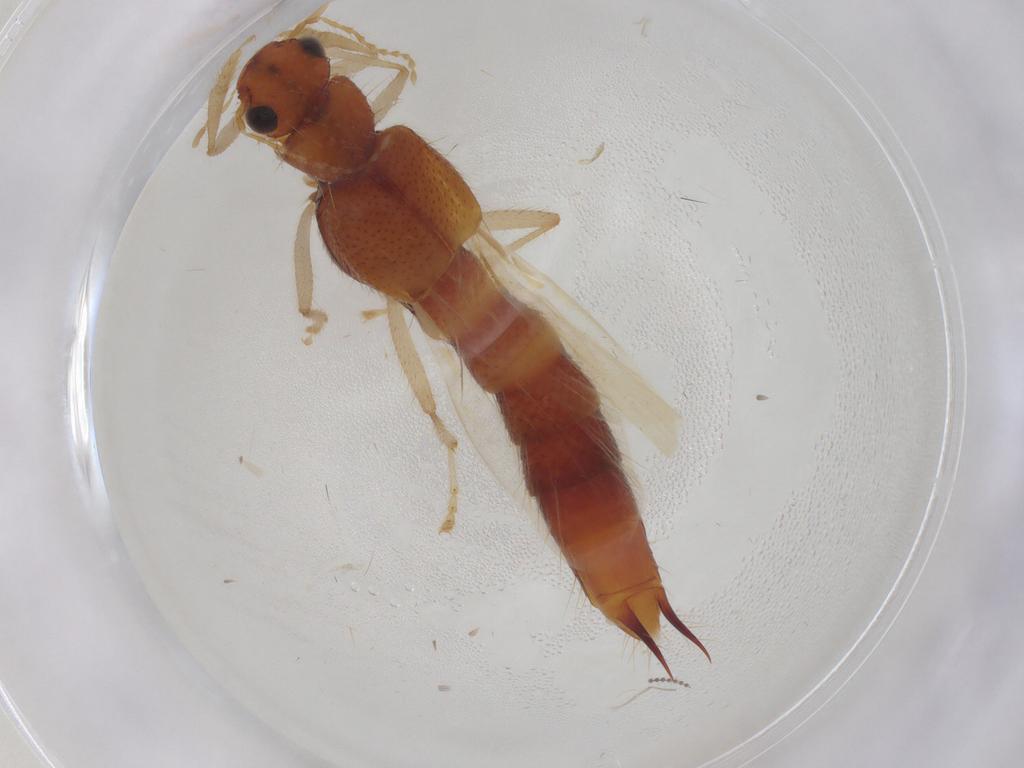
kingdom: Animalia
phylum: Arthropoda
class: Insecta
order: Coleoptera
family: Staphylinidae
